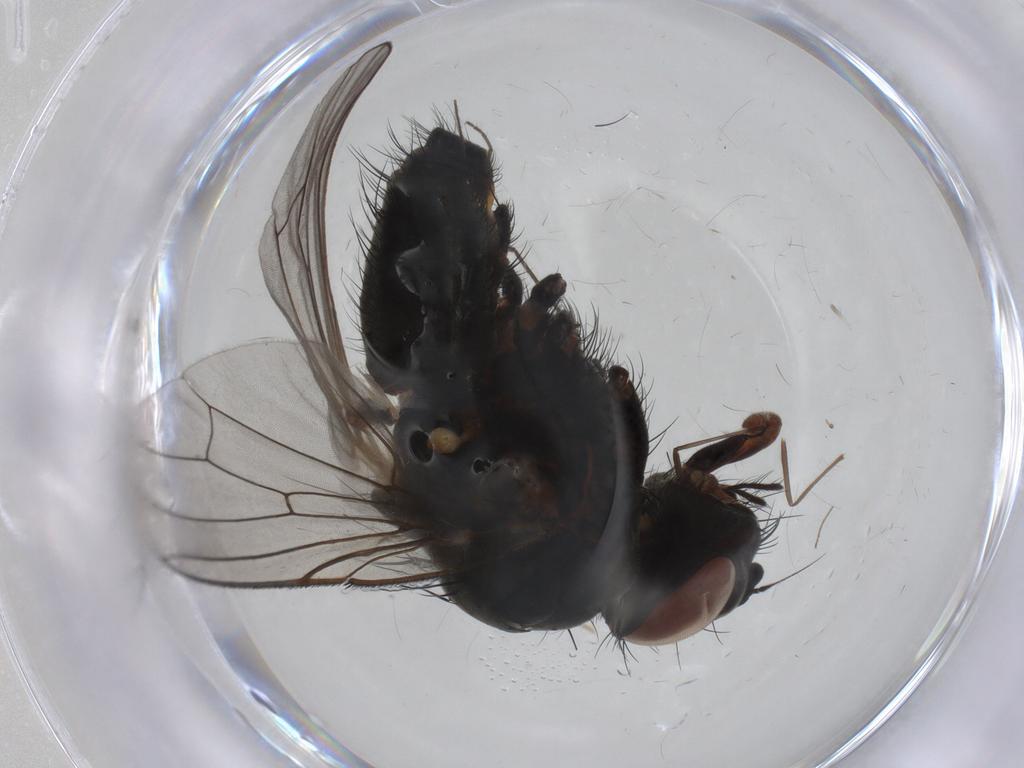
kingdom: Animalia
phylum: Arthropoda
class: Insecta
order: Diptera
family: Anthomyiidae
